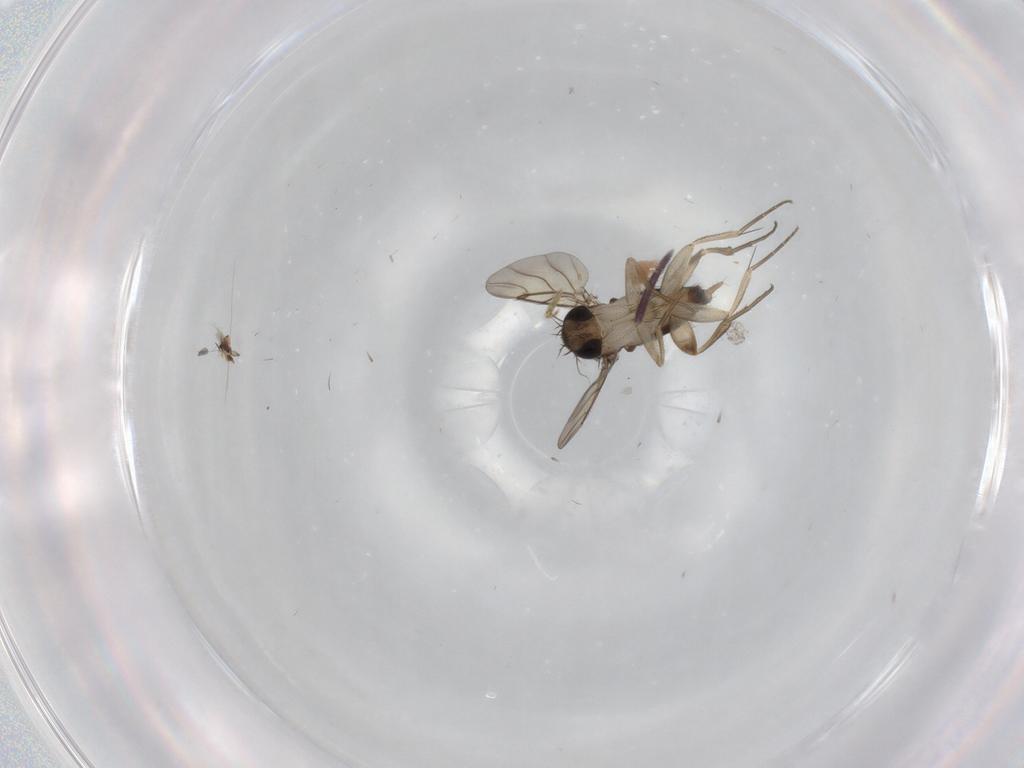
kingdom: Animalia
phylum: Arthropoda
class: Insecta
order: Diptera
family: Phoridae
